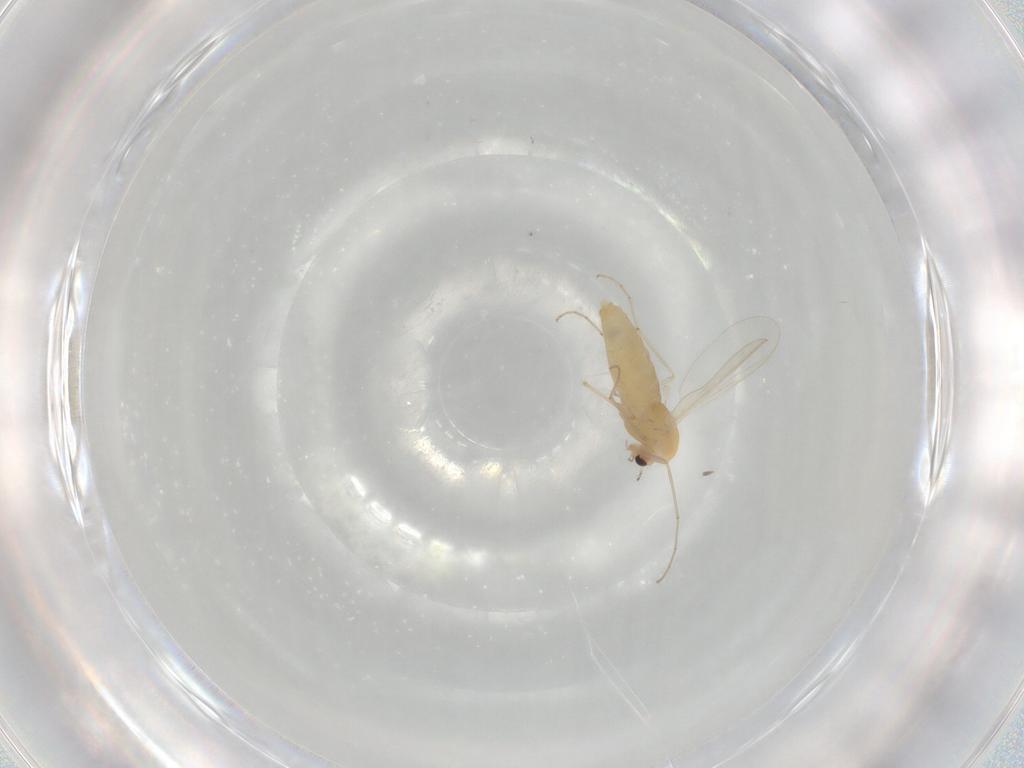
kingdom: Animalia
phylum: Arthropoda
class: Insecta
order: Diptera
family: Chironomidae
